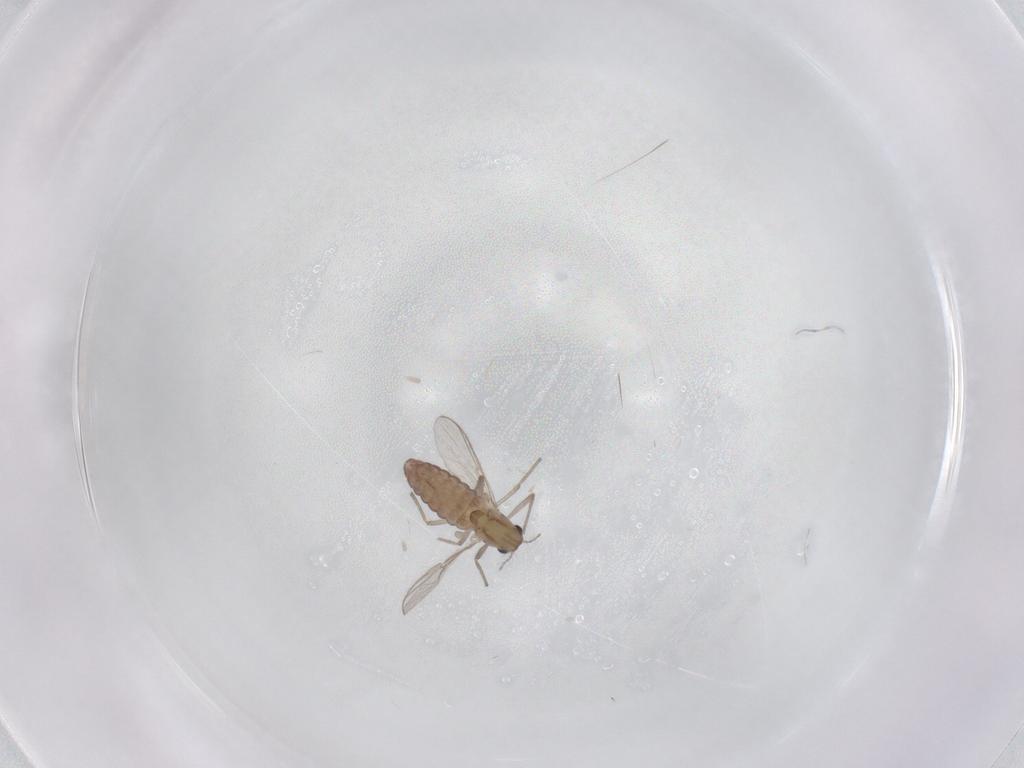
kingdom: Animalia
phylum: Arthropoda
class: Insecta
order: Diptera
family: Chironomidae
